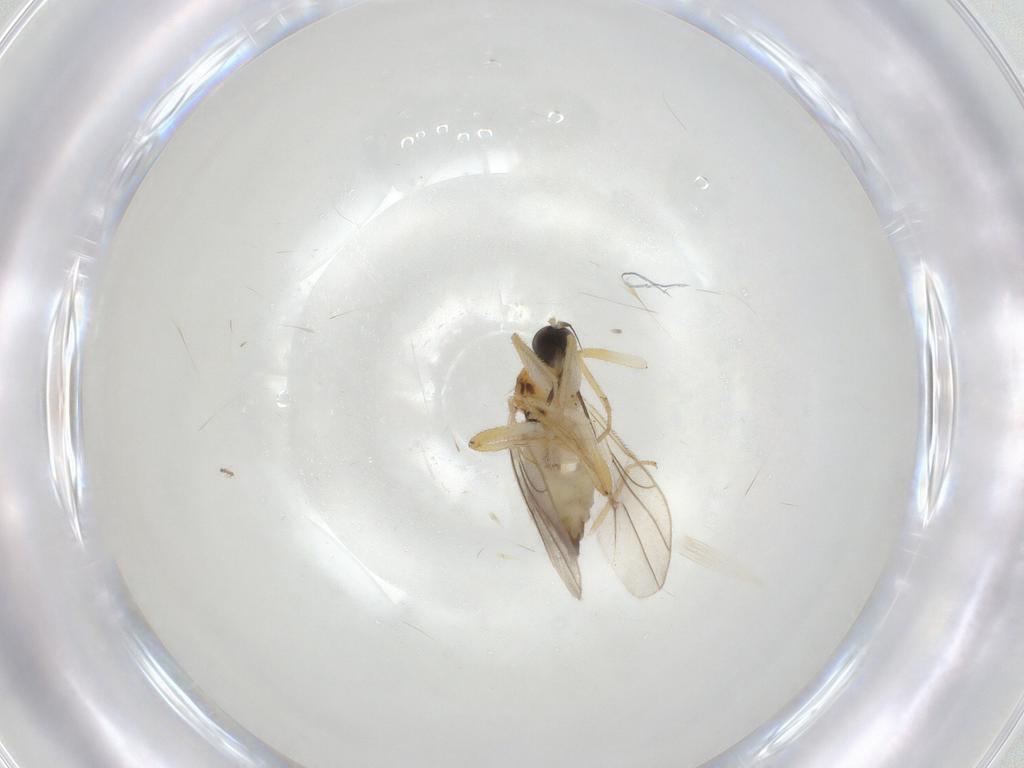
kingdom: Animalia
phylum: Arthropoda
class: Insecta
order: Diptera
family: Hybotidae
